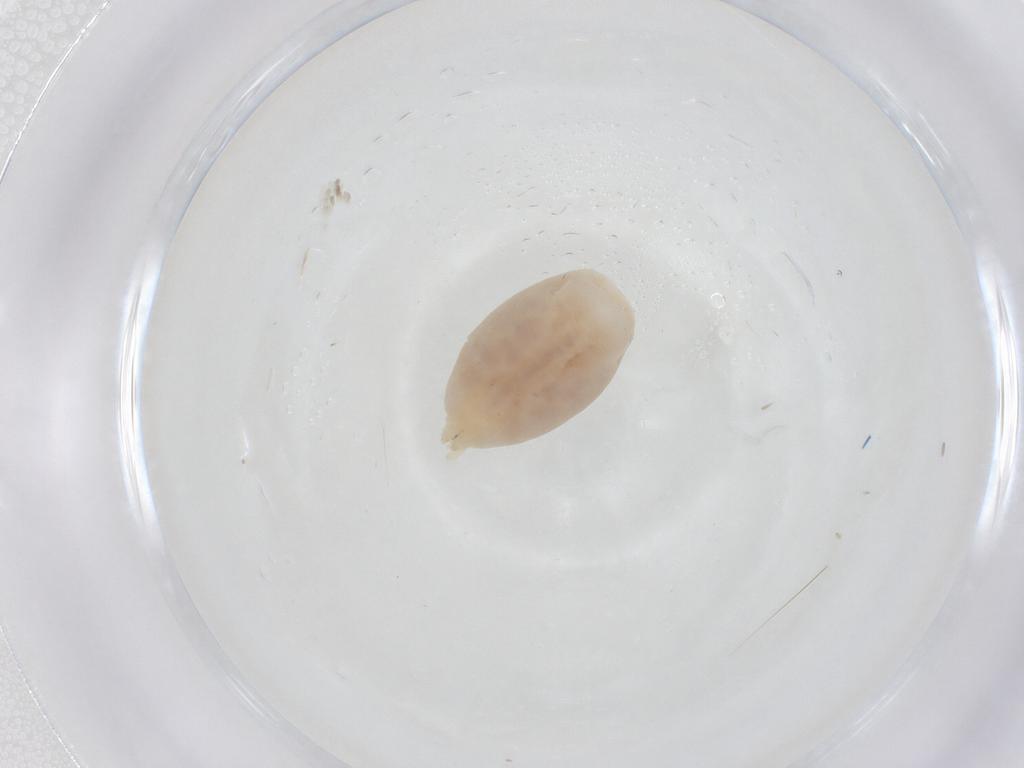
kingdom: Animalia
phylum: Arthropoda
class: Arachnida
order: Araneae
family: Anyphaenidae
